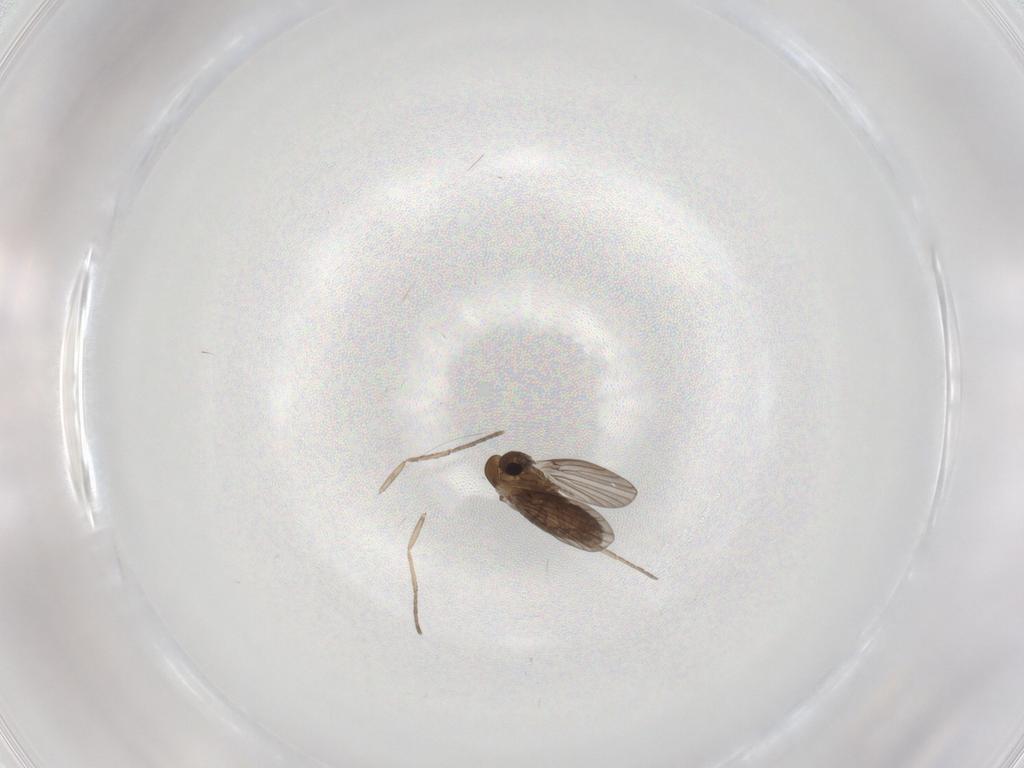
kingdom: Animalia
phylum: Arthropoda
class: Insecta
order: Diptera
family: Psychodidae
